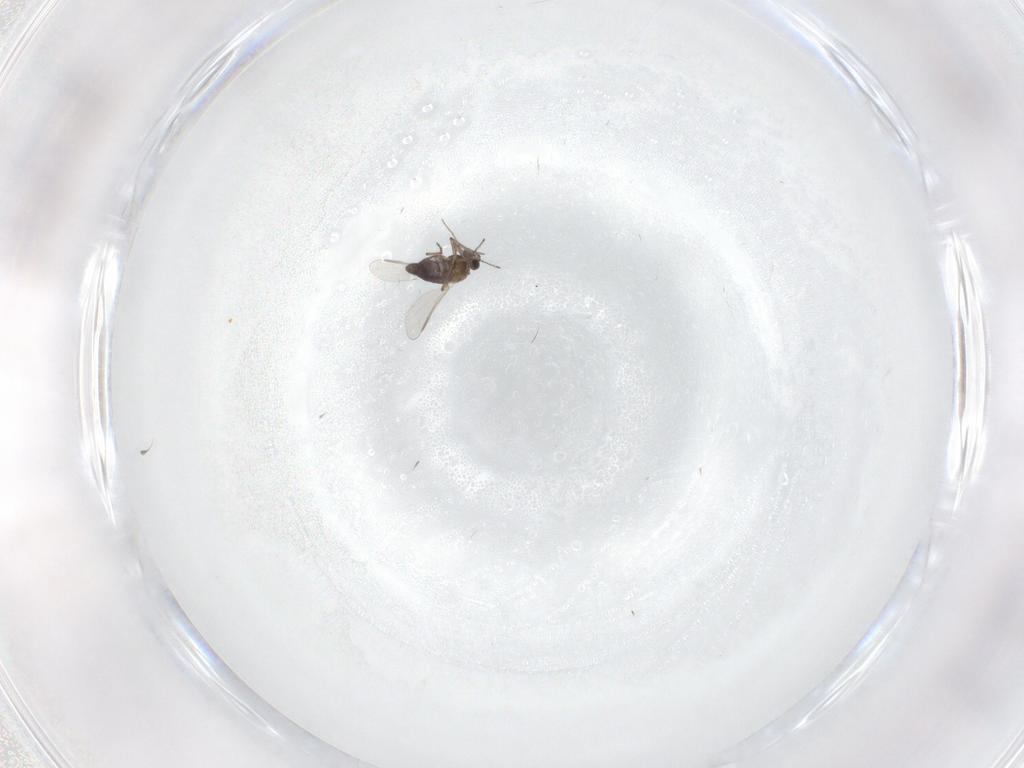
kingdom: Animalia
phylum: Arthropoda
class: Insecta
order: Diptera
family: Chironomidae
